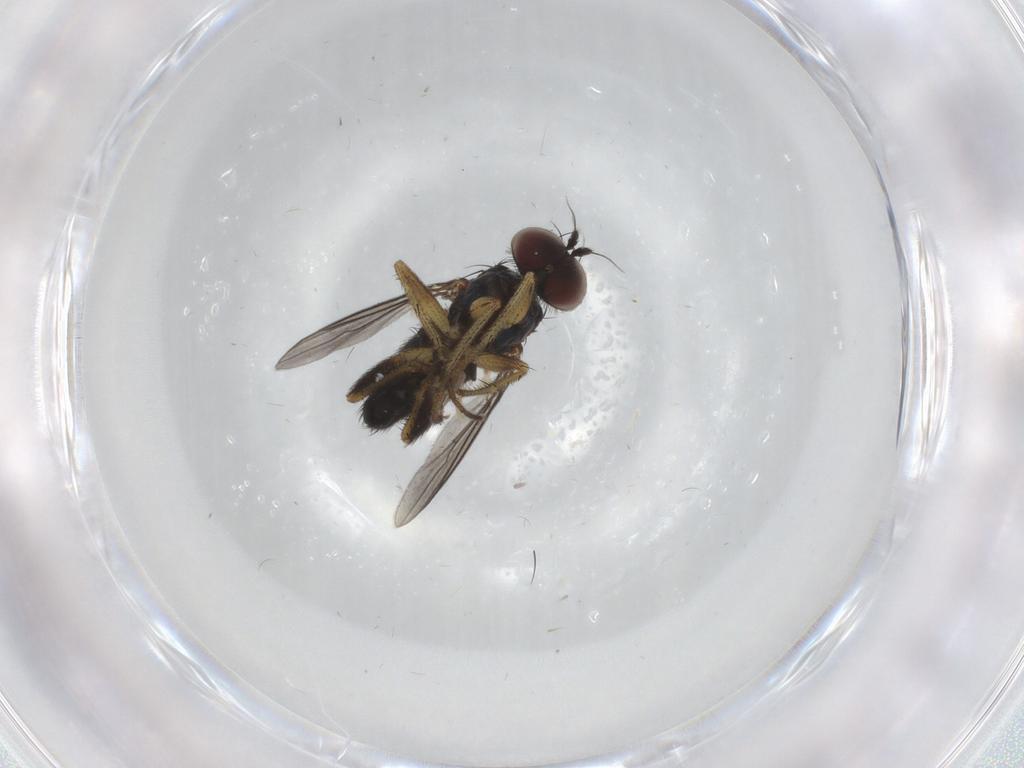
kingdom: Animalia
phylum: Arthropoda
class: Insecta
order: Diptera
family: Dolichopodidae
